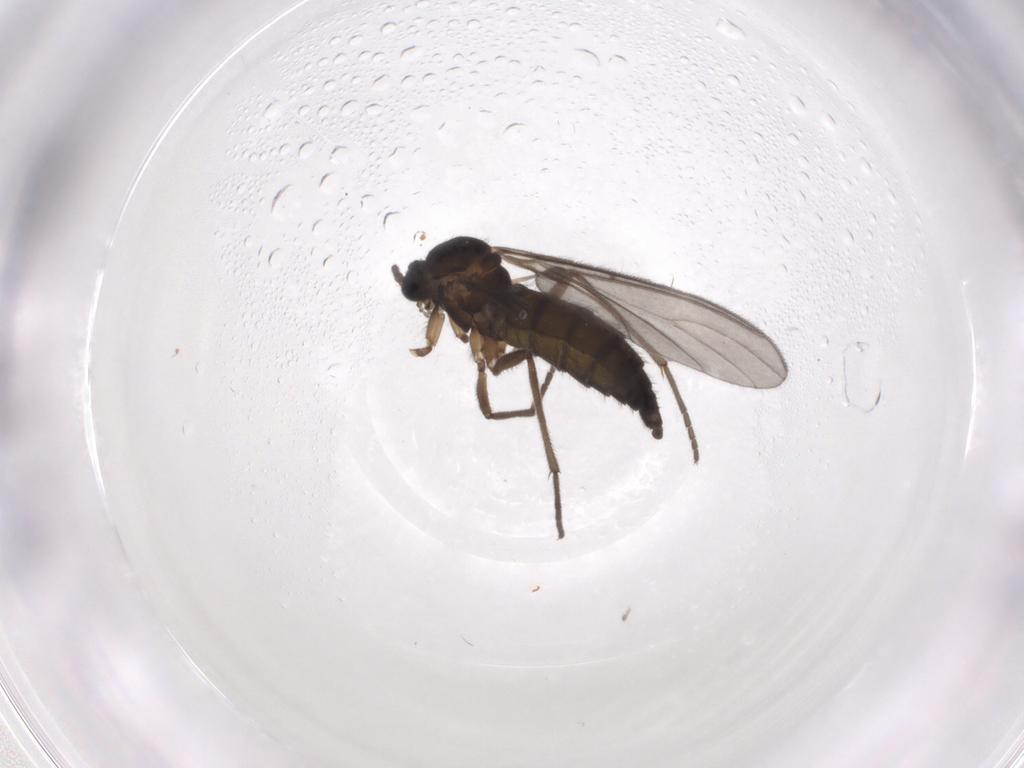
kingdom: Animalia
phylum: Arthropoda
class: Insecta
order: Diptera
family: Sciaridae
